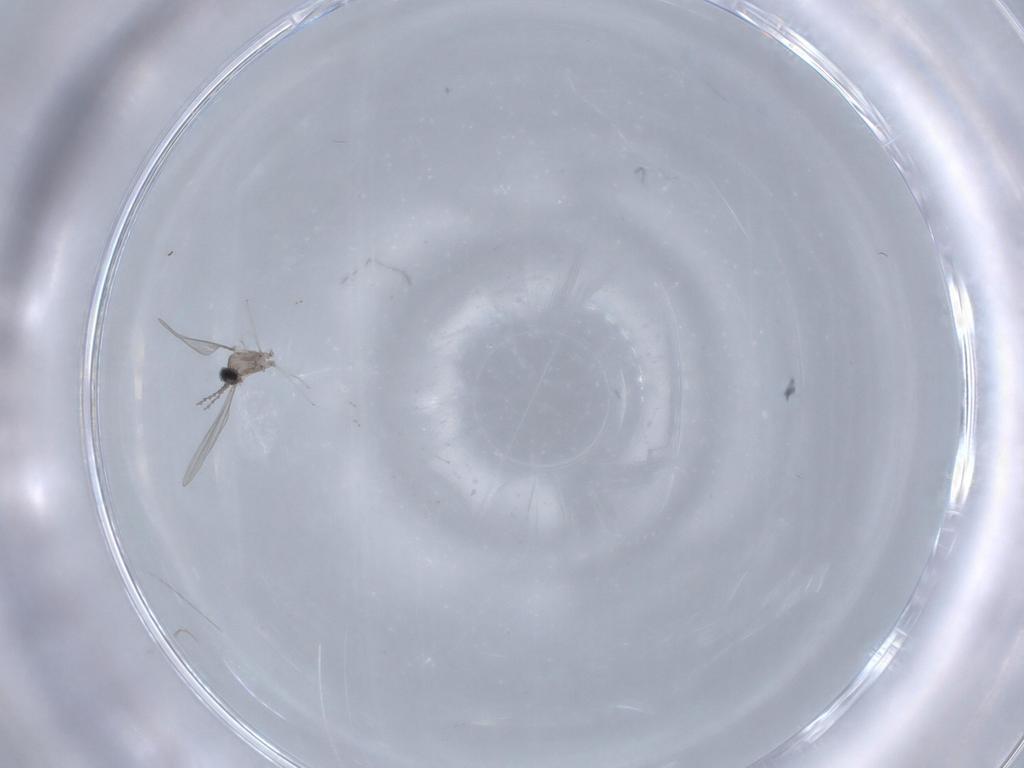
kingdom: Animalia
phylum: Arthropoda
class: Insecta
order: Diptera
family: Cecidomyiidae
